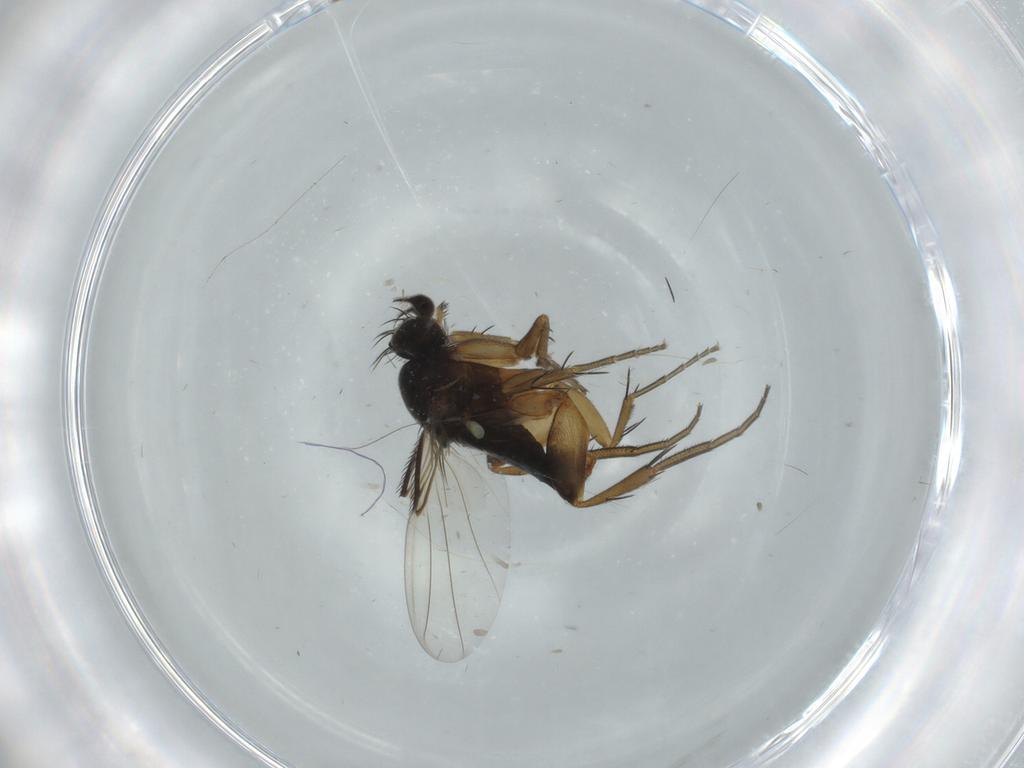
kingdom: Animalia
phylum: Arthropoda
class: Insecta
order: Diptera
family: Phoridae
